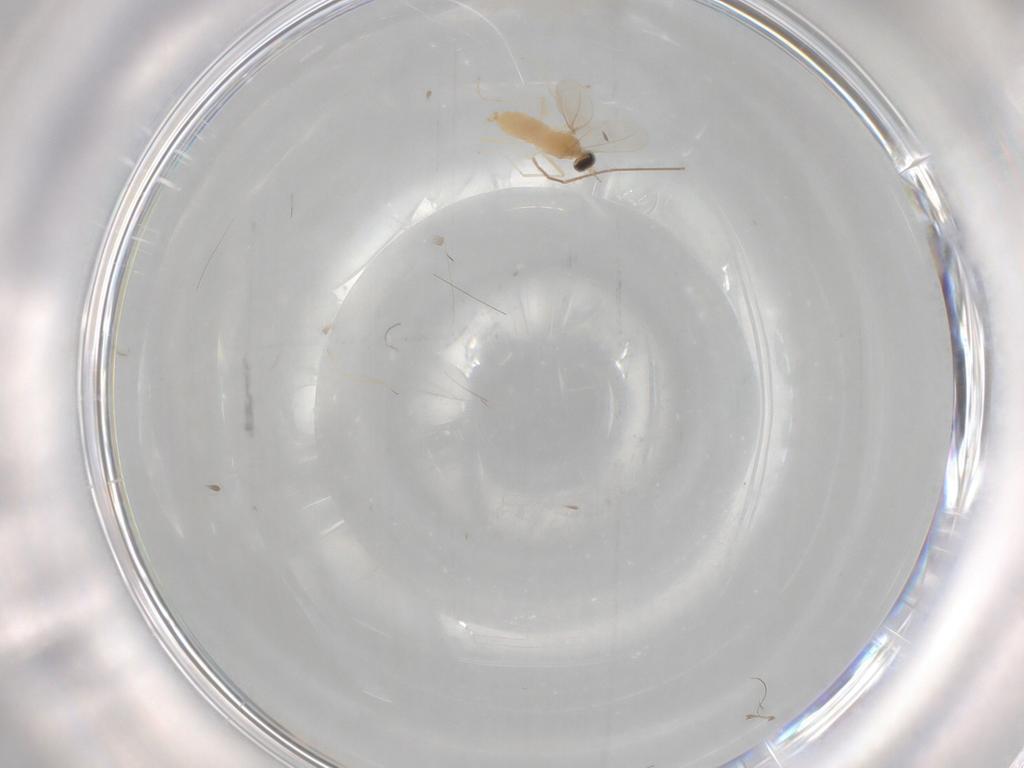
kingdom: Animalia
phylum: Arthropoda
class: Insecta
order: Diptera
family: Cecidomyiidae
